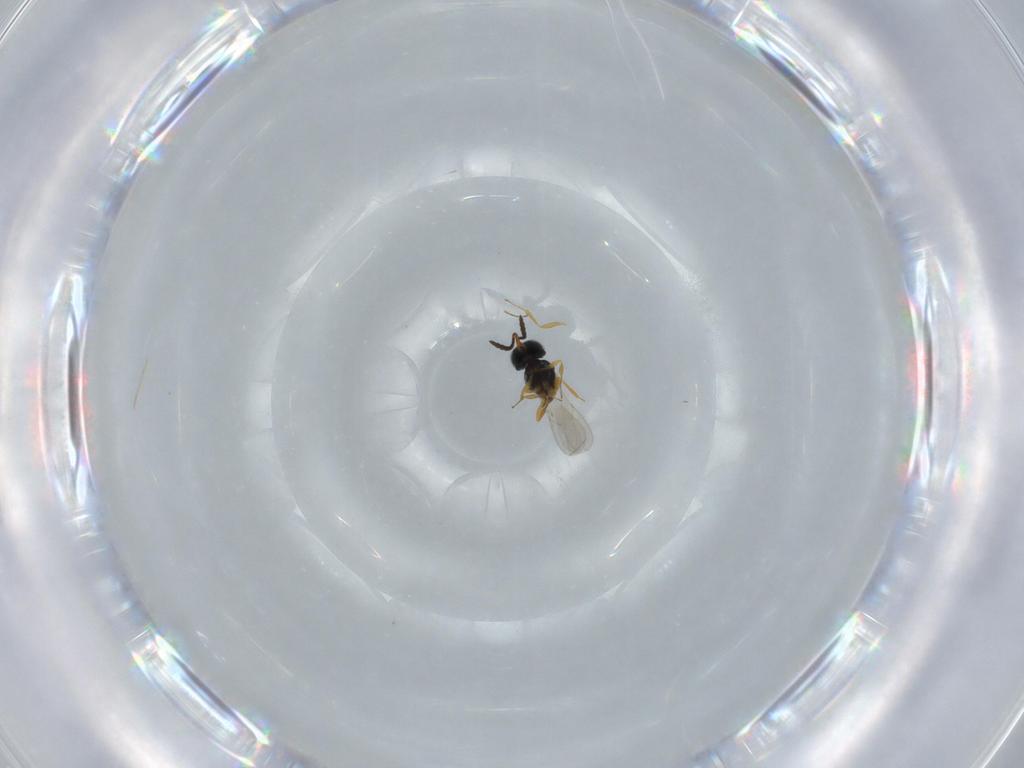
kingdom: Animalia
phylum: Arthropoda
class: Insecta
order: Hymenoptera
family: Scelionidae
